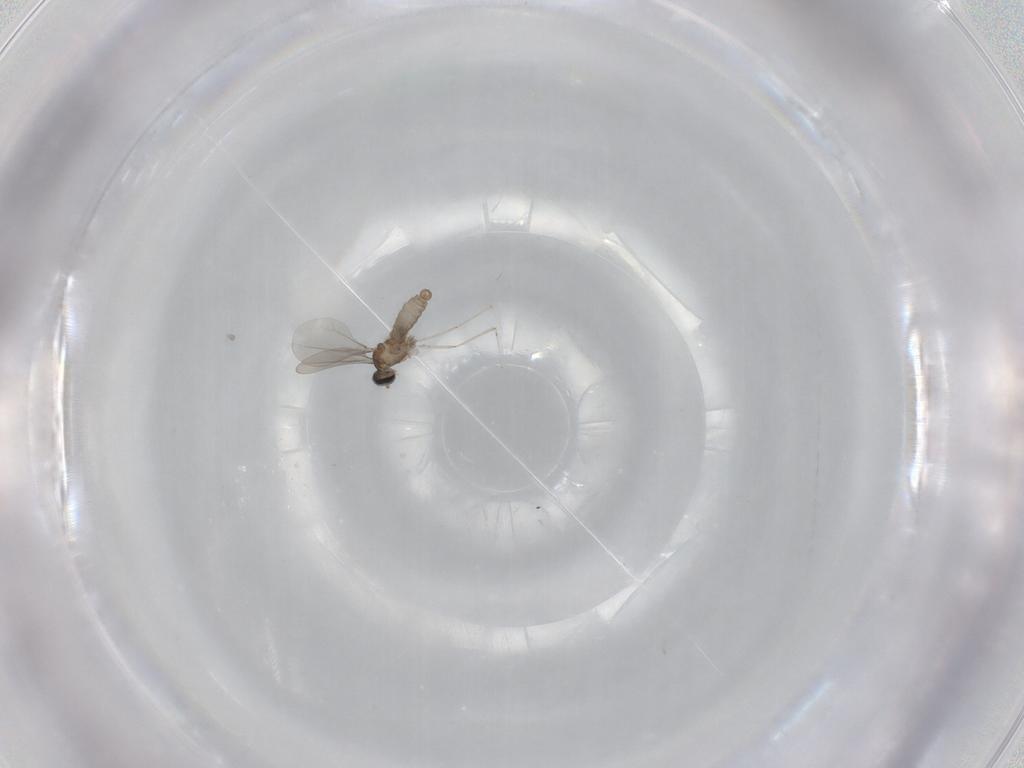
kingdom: Animalia
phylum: Arthropoda
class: Insecta
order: Diptera
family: Cecidomyiidae
